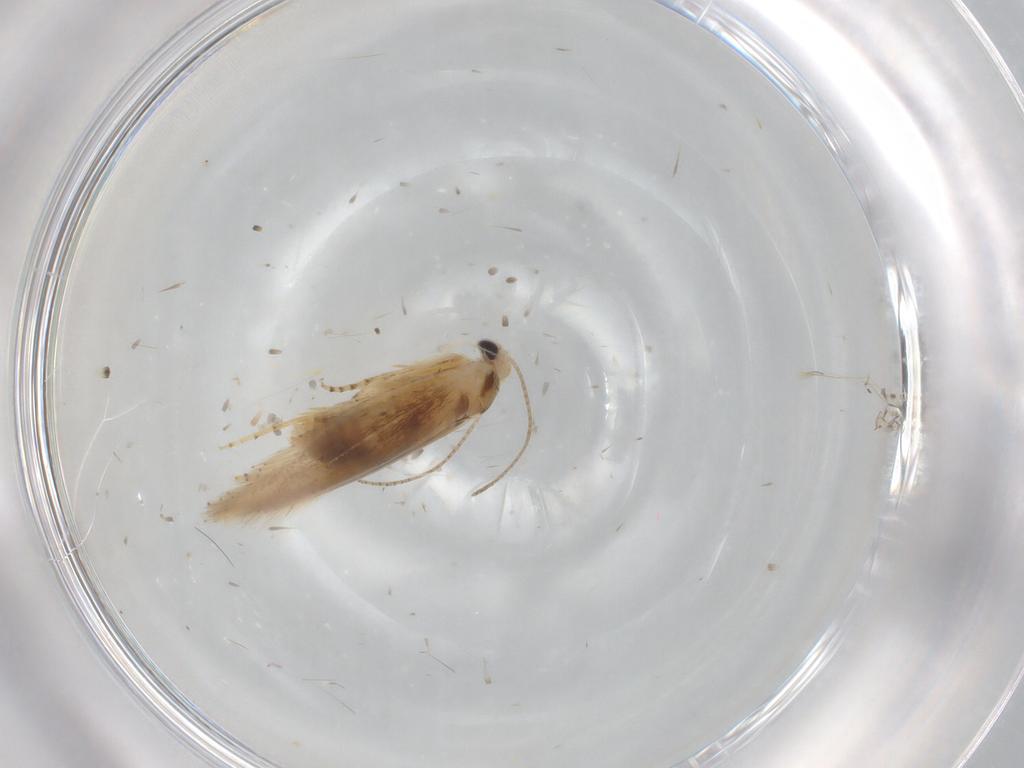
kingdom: Animalia
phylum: Arthropoda
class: Insecta
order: Lepidoptera
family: Bucculatricidae
